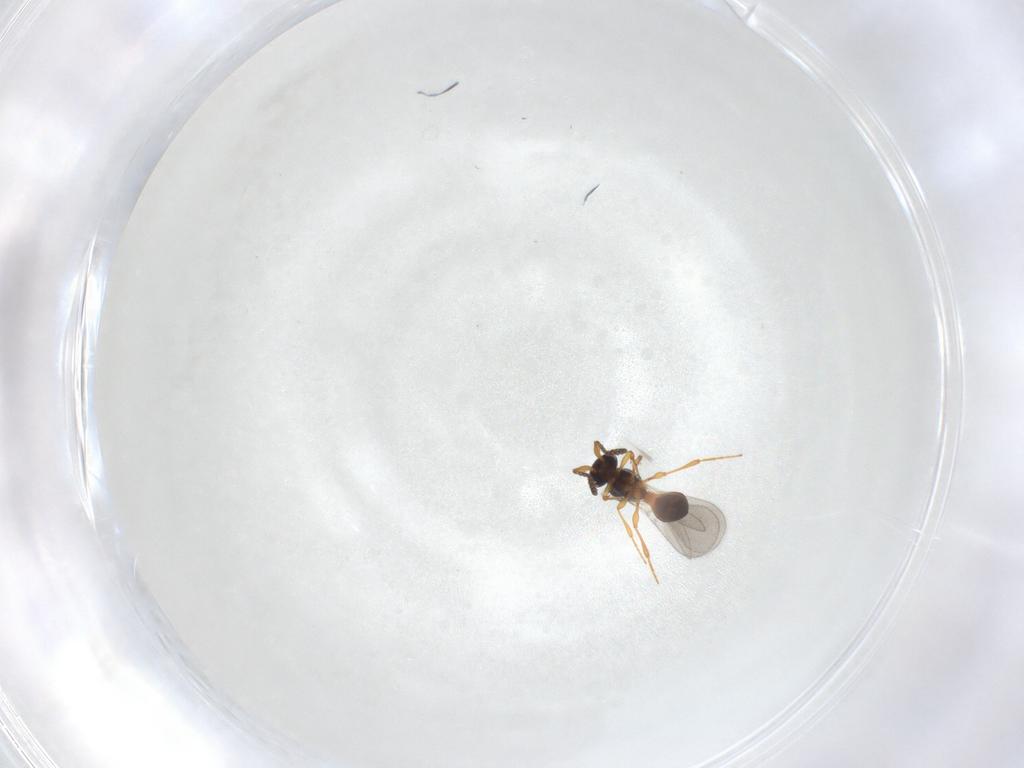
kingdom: Animalia
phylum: Arthropoda
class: Insecta
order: Hymenoptera
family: Platygastridae
